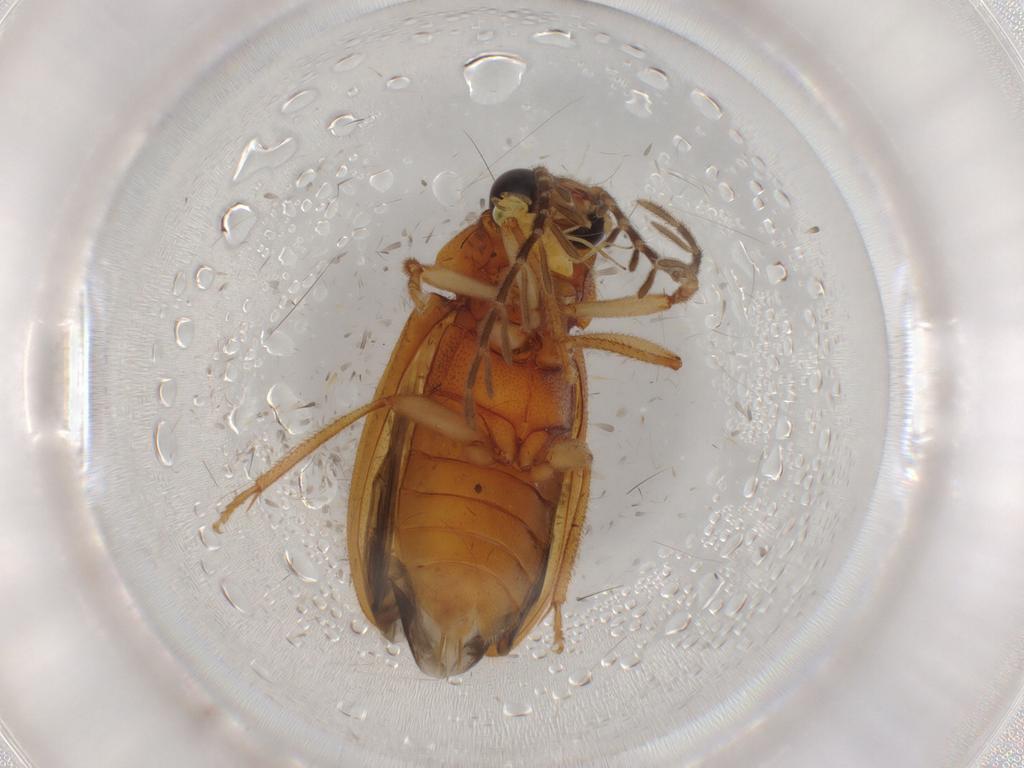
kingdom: Animalia
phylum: Arthropoda
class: Insecta
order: Coleoptera
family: Ptilodactylidae
